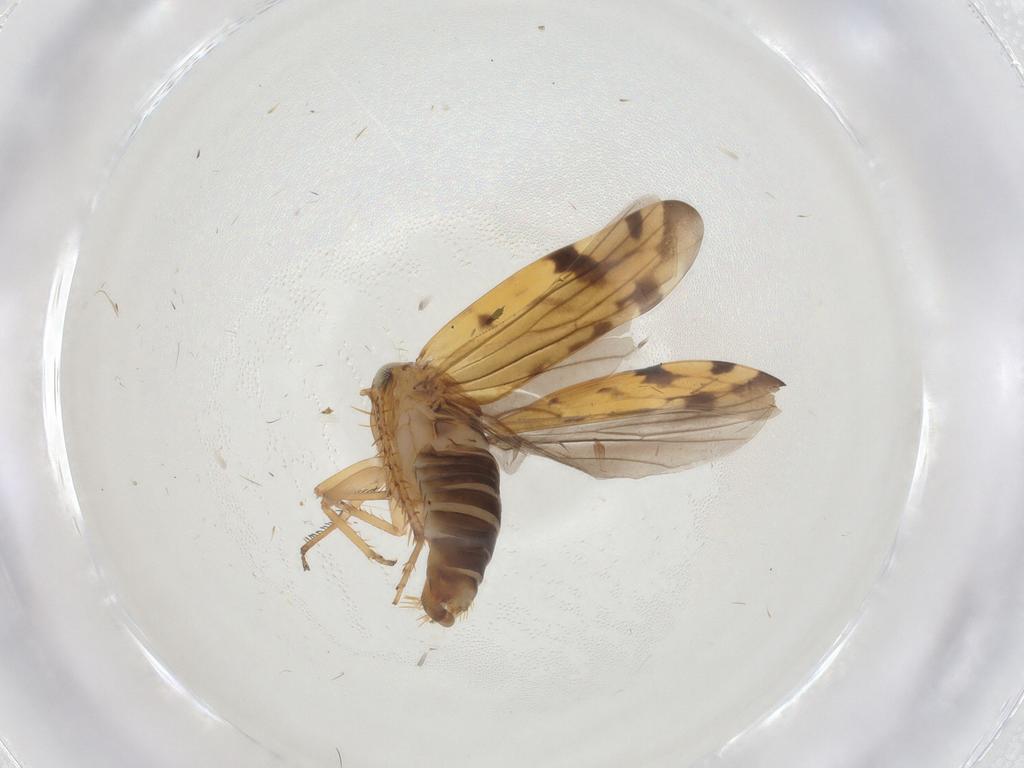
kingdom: Animalia
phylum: Arthropoda
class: Insecta
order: Hemiptera
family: Cicadellidae
